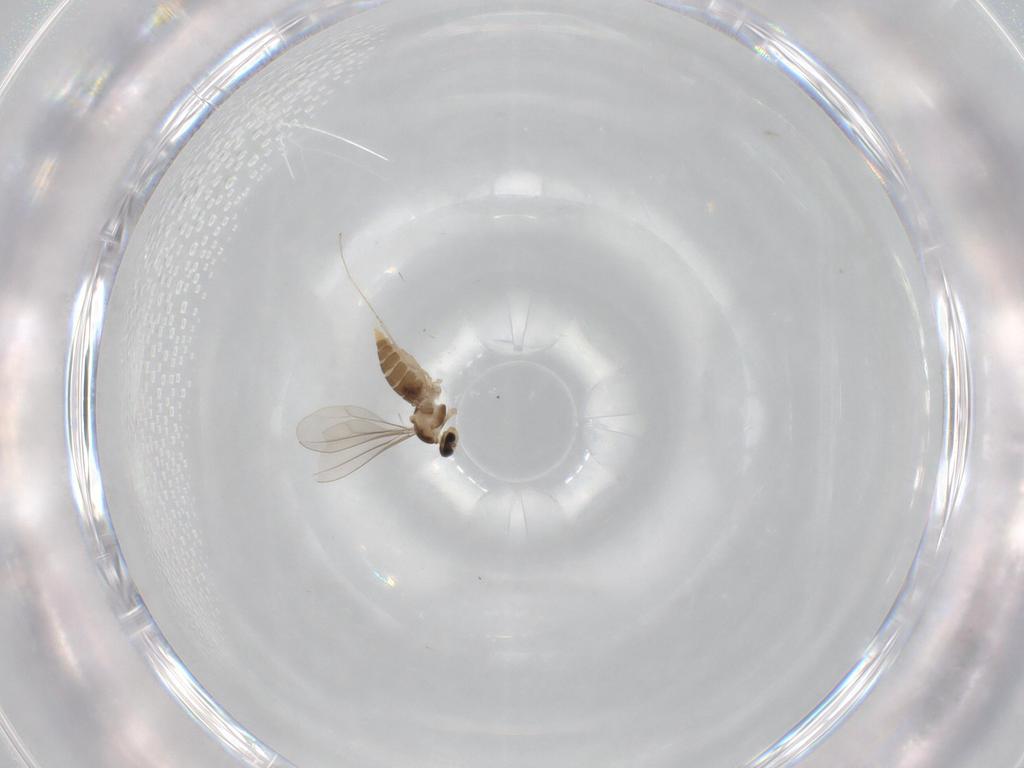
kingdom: Animalia
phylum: Arthropoda
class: Insecta
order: Diptera
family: Cecidomyiidae
